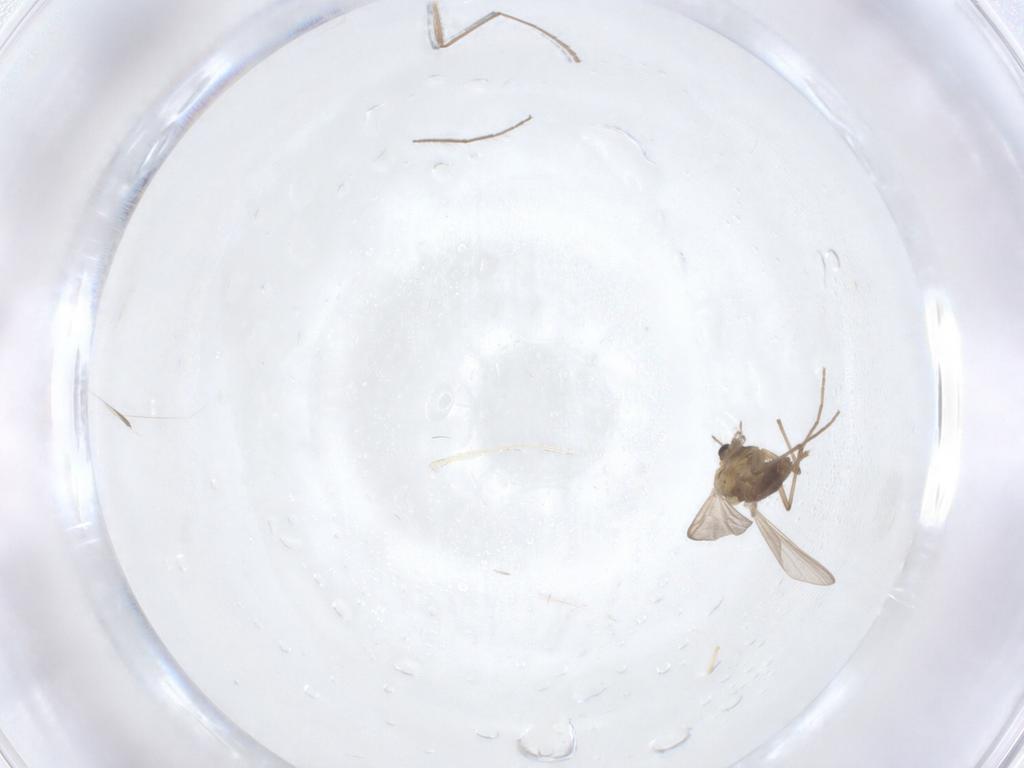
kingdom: Animalia
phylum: Arthropoda
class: Insecta
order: Diptera
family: Chironomidae
